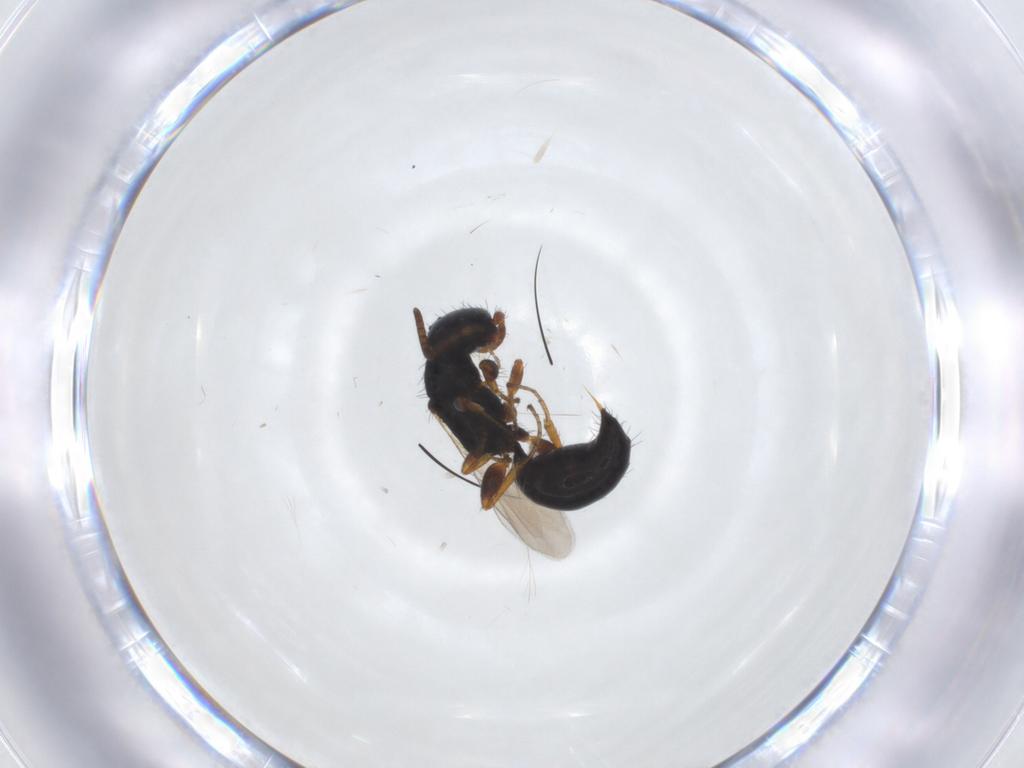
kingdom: Animalia
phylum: Arthropoda
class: Insecta
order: Hymenoptera
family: Bethylidae
